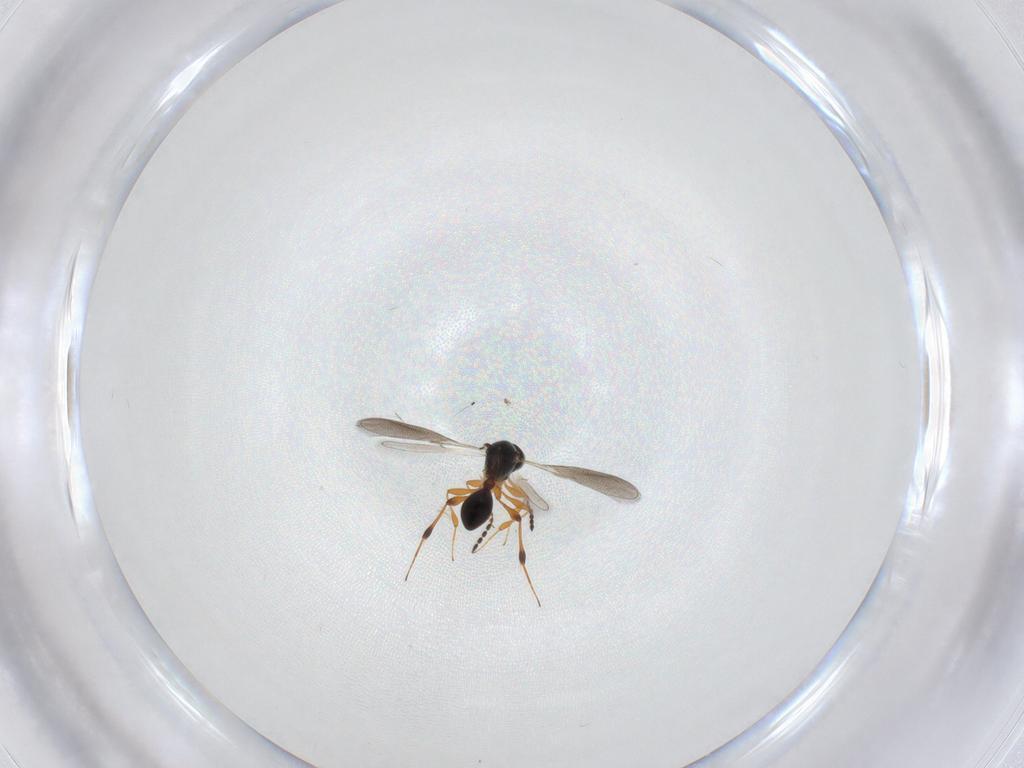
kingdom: Animalia
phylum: Arthropoda
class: Insecta
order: Hymenoptera
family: Platygastridae
